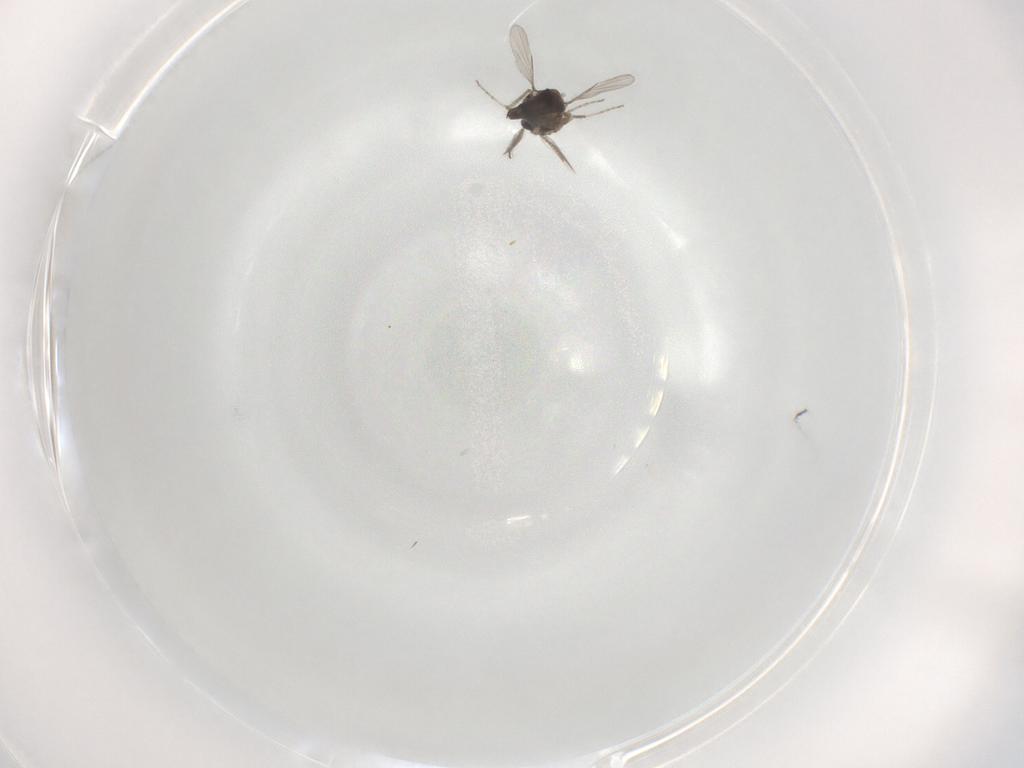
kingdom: Animalia
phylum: Arthropoda
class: Insecta
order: Diptera
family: Ceratopogonidae
